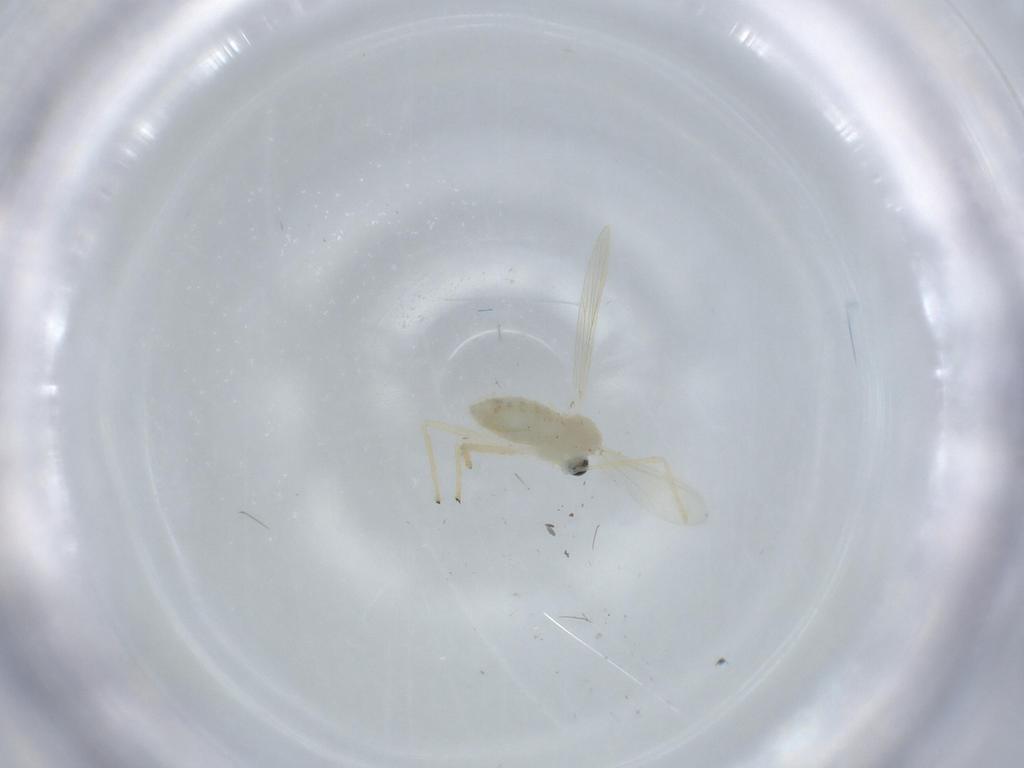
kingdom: Animalia
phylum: Arthropoda
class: Insecta
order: Diptera
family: Chironomidae
